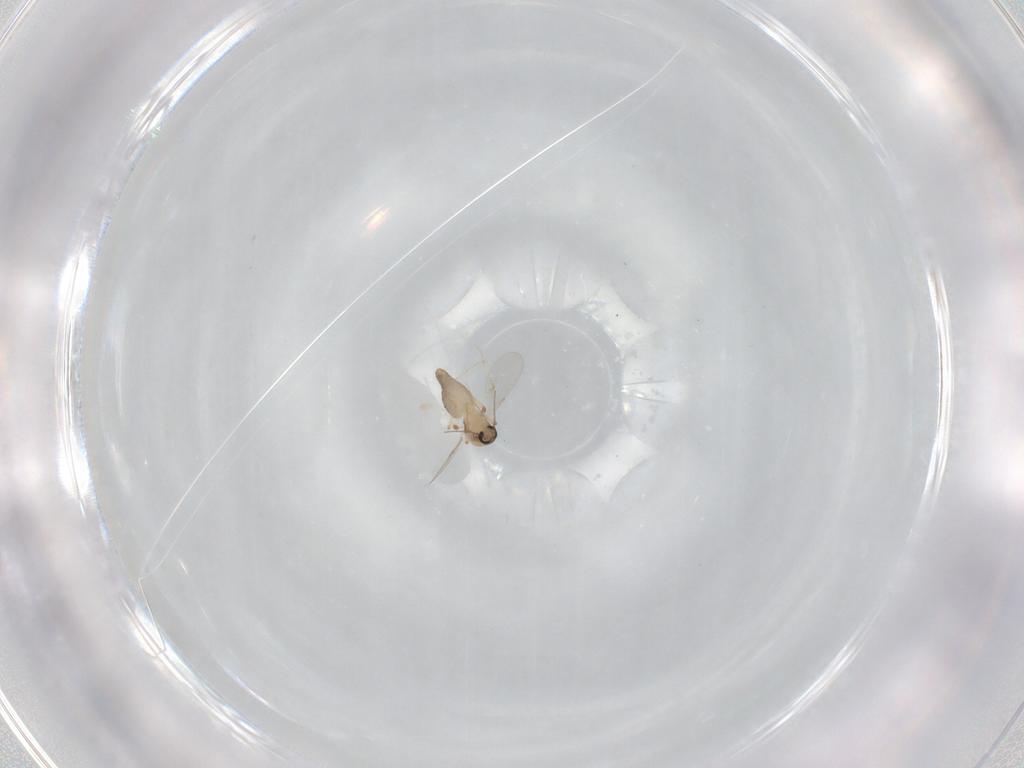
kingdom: Animalia
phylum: Arthropoda
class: Insecta
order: Diptera
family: Ceratopogonidae
